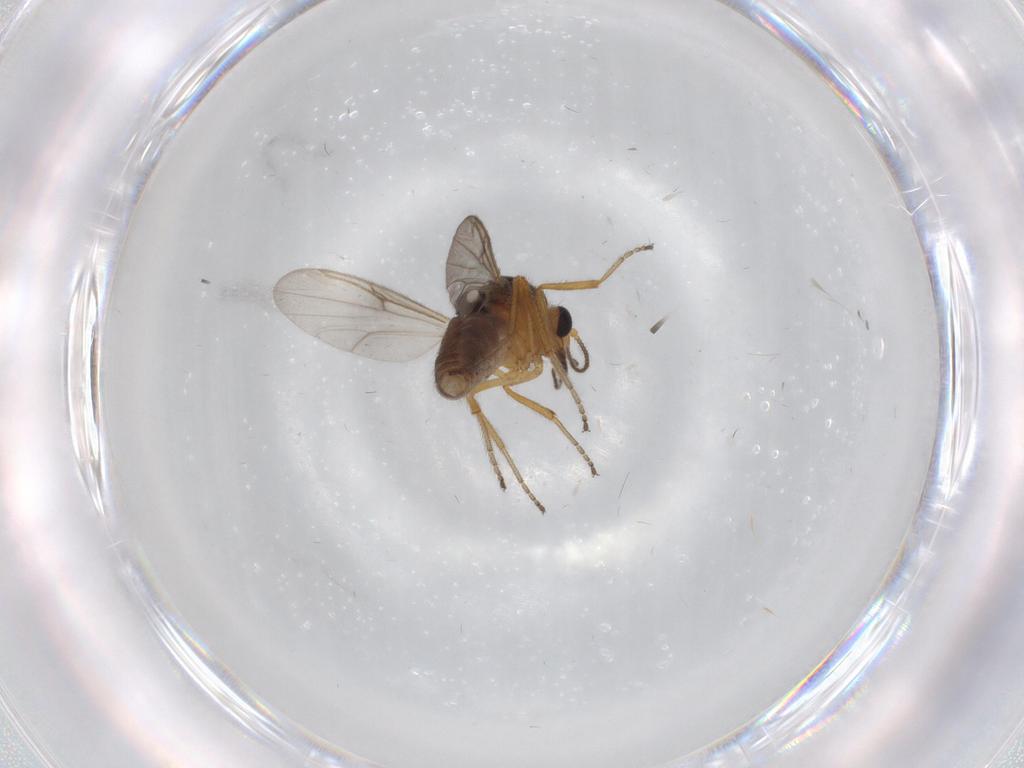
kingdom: Animalia
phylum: Arthropoda
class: Insecta
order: Diptera
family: Ceratopogonidae
